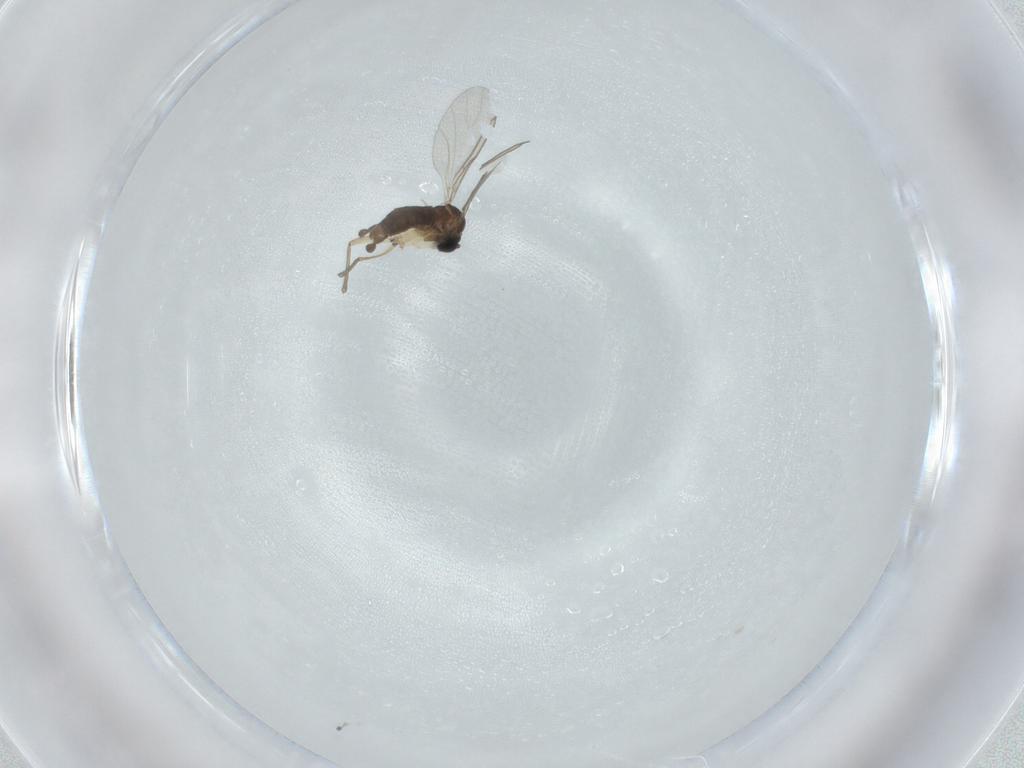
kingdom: Animalia
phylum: Arthropoda
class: Insecta
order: Diptera
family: Sciaridae
